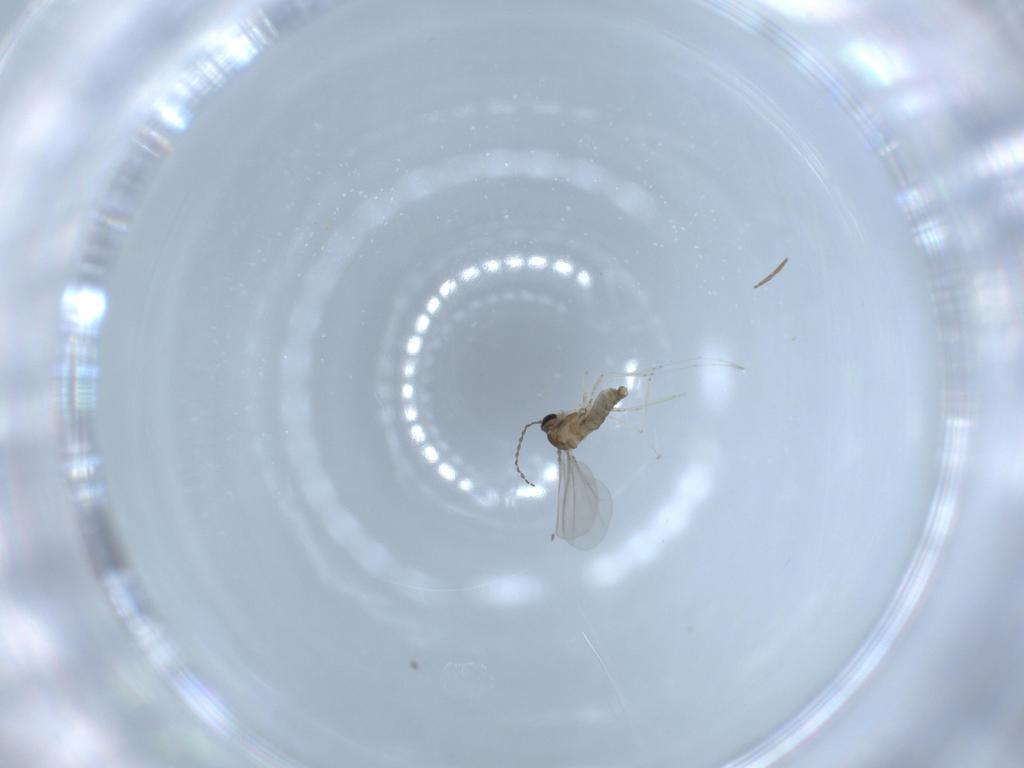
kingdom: Animalia
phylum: Arthropoda
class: Insecta
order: Diptera
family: Cecidomyiidae
